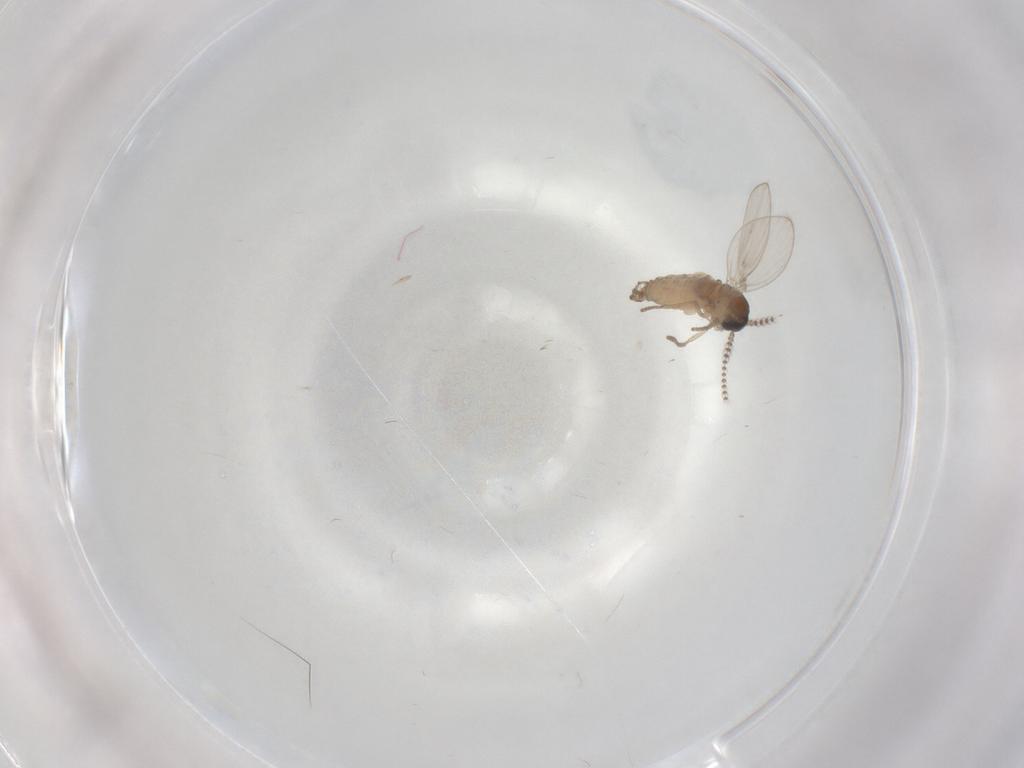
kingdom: Animalia
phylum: Arthropoda
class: Insecta
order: Diptera
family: Psychodidae
